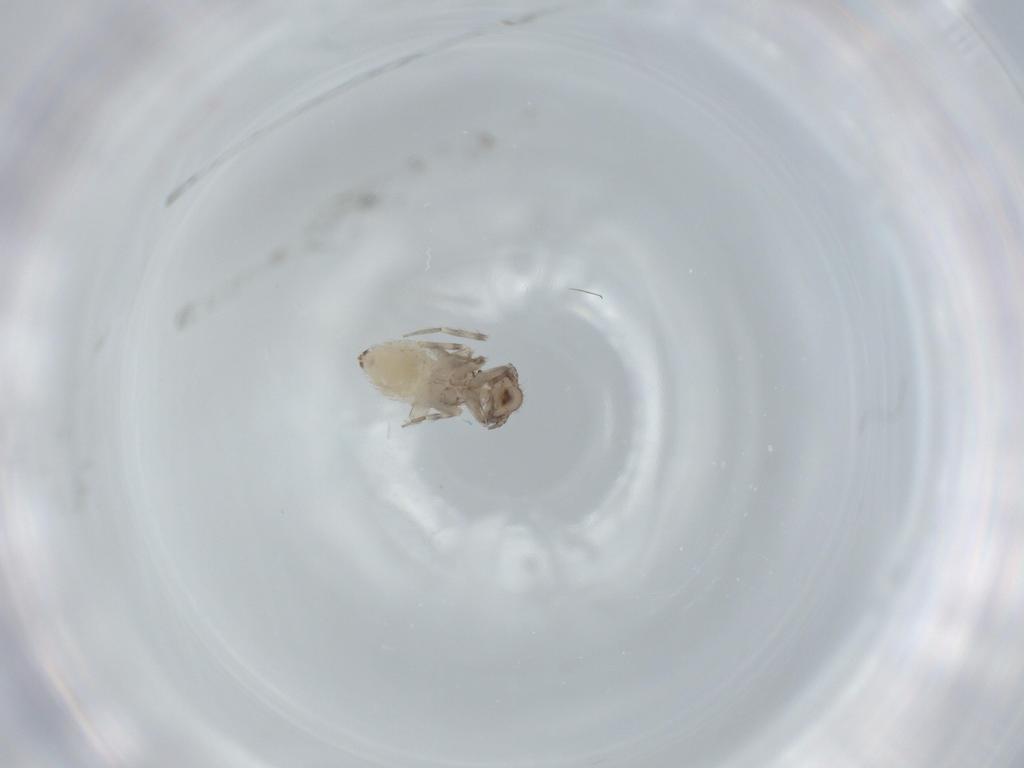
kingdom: Animalia
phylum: Arthropoda
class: Insecta
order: Psocodea
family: Lepidopsocidae
